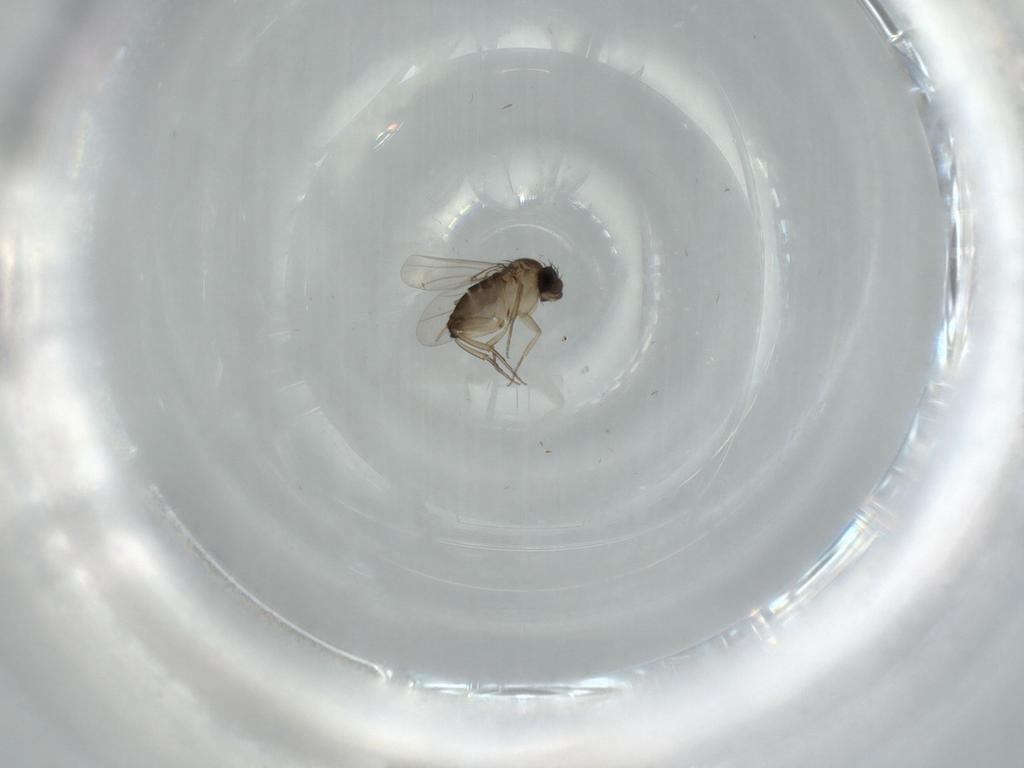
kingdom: Animalia
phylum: Arthropoda
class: Insecta
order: Diptera
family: Phoridae
